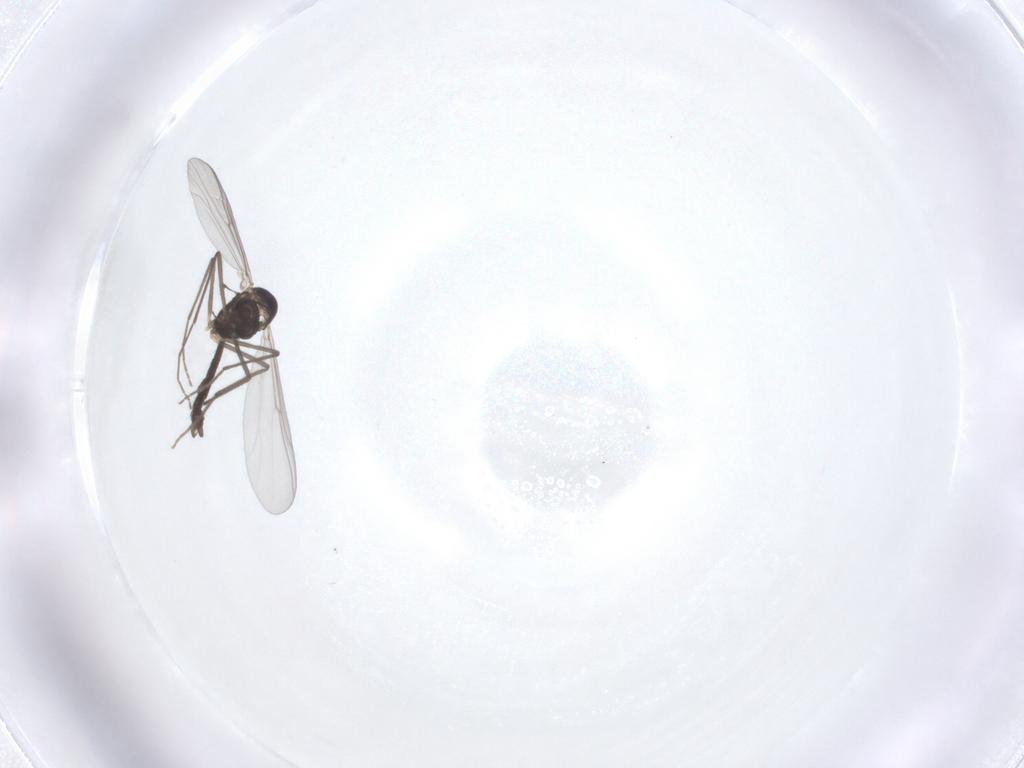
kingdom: Animalia
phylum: Arthropoda
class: Insecta
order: Diptera
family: Chironomidae
